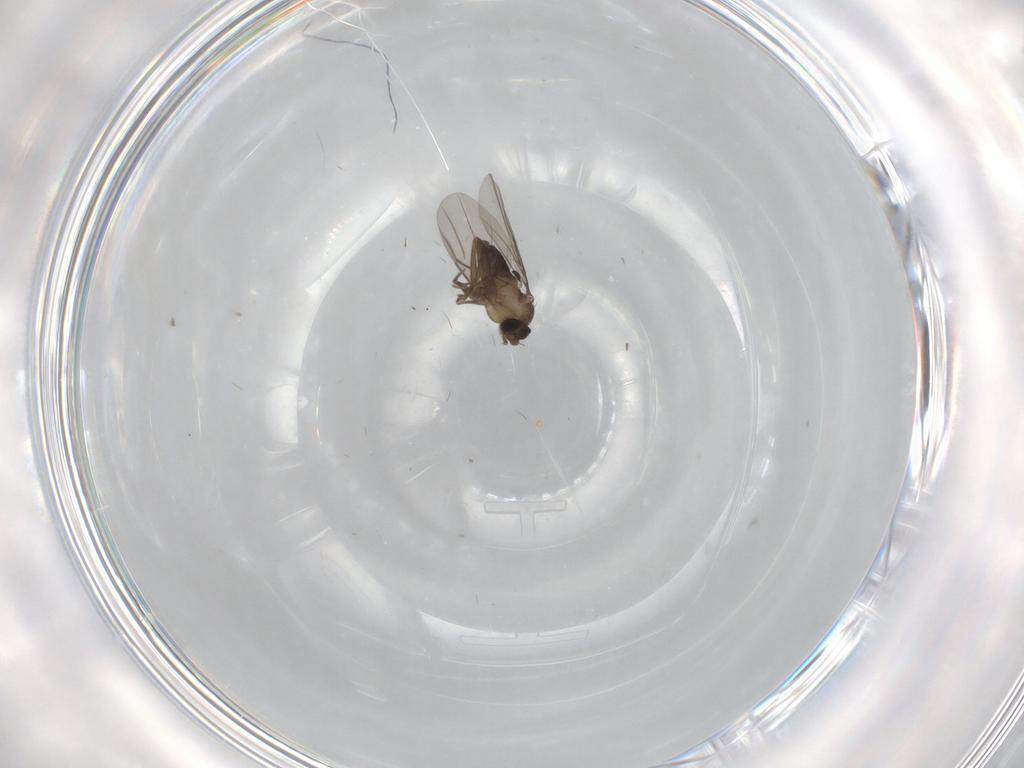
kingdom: Animalia
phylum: Arthropoda
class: Insecta
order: Diptera
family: Phoridae
